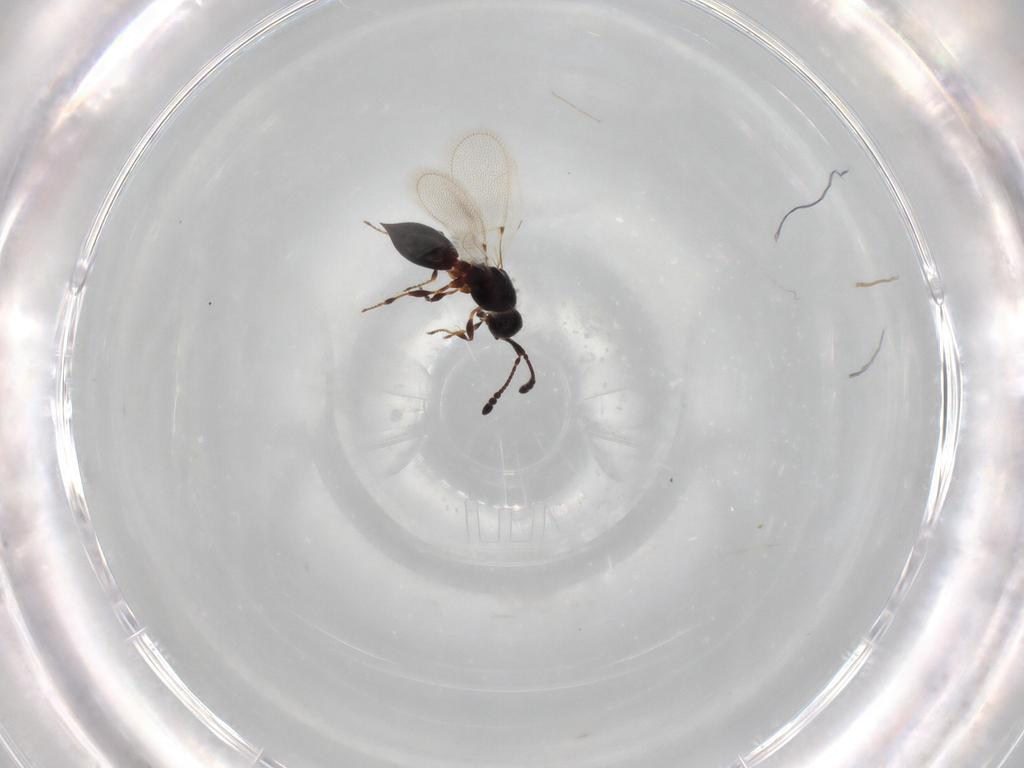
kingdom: Animalia
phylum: Arthropoda
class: Insecta
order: Hymenoptera
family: Diapriidae
